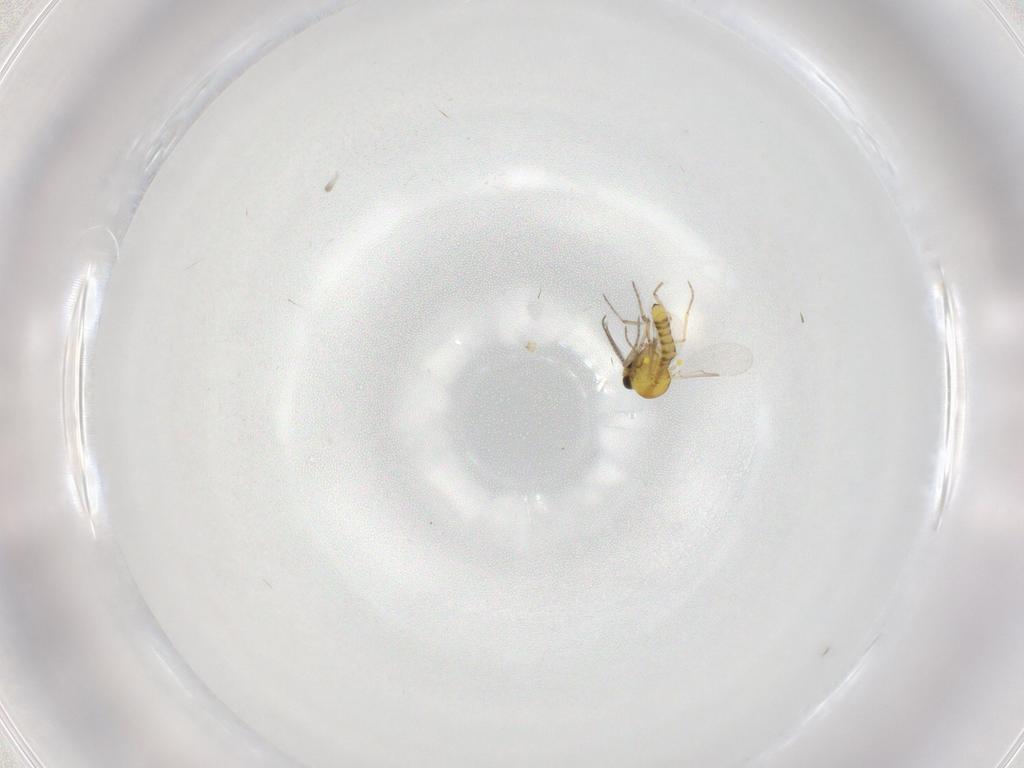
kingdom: Animalia
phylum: Arthropoda
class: Insecta
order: Diptera
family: Ceratopogonidae
